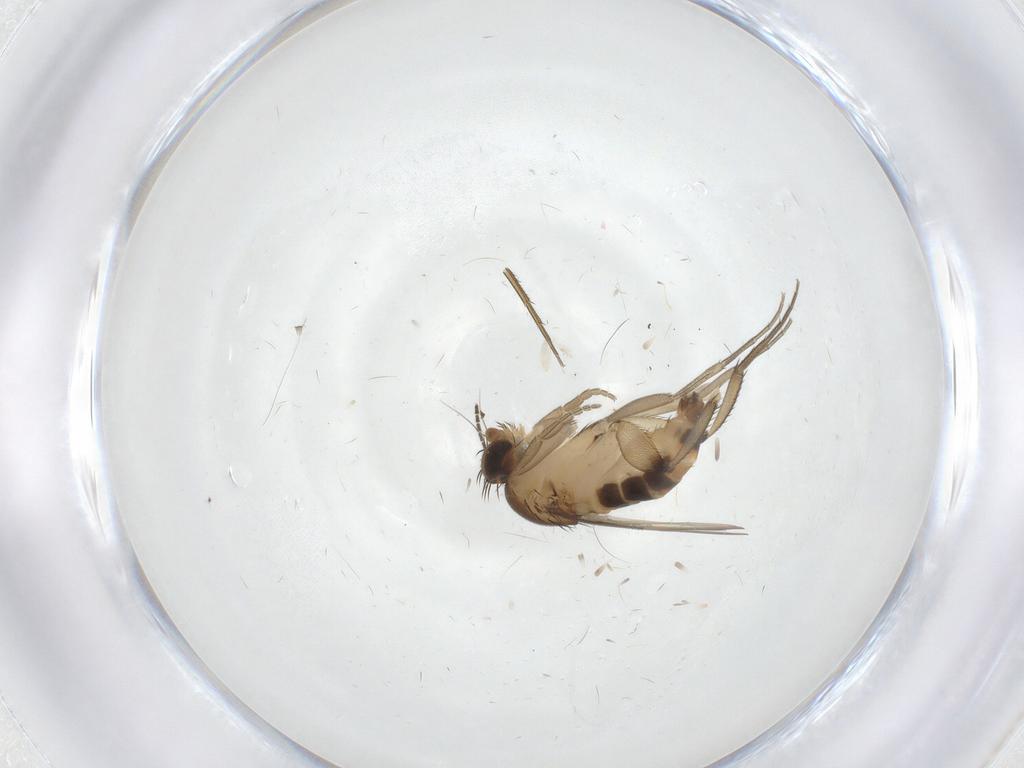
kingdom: Animalia
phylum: Arthropoda
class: Insecta
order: Diptera
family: Sciaridae
